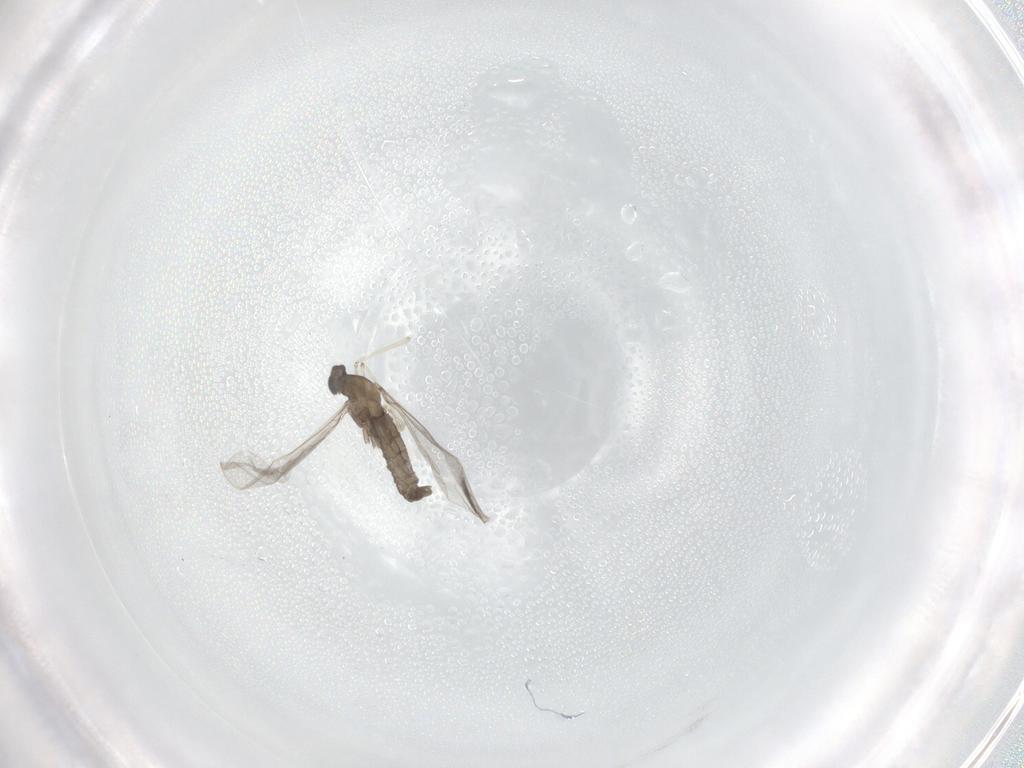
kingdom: Animalia
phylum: Arthropoda
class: Insecta
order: Diptera
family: Cecidomyiidae
